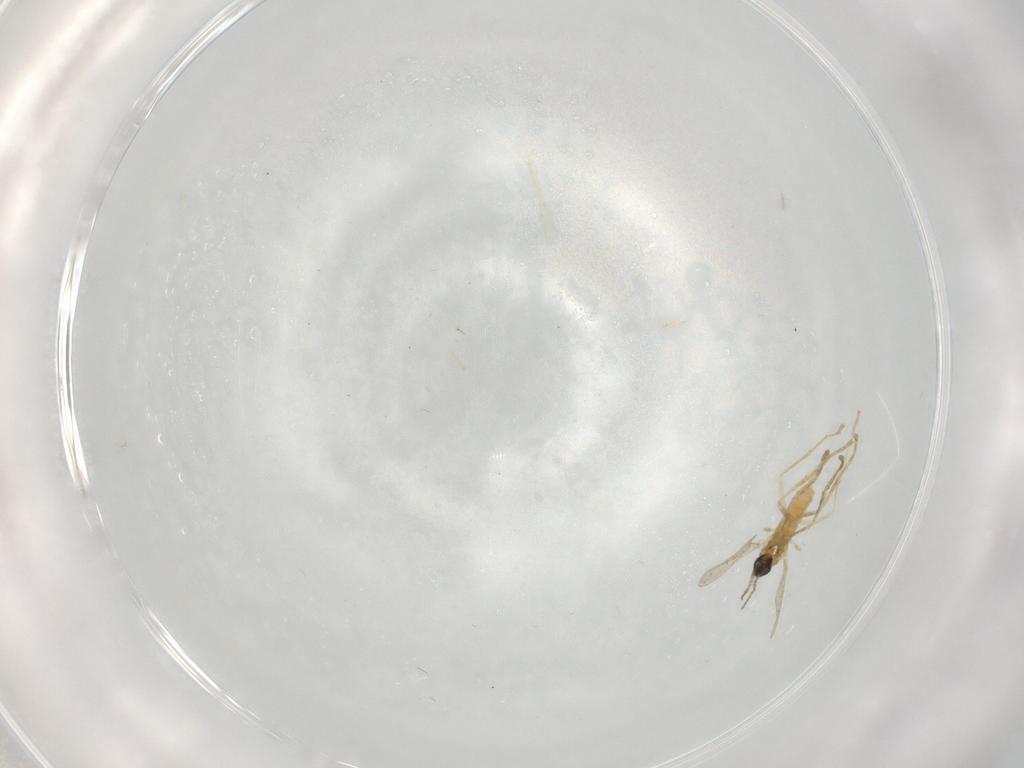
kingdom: Animalia
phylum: Arthropoda
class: Insecta
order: Diptera
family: Cecidomyiidae
